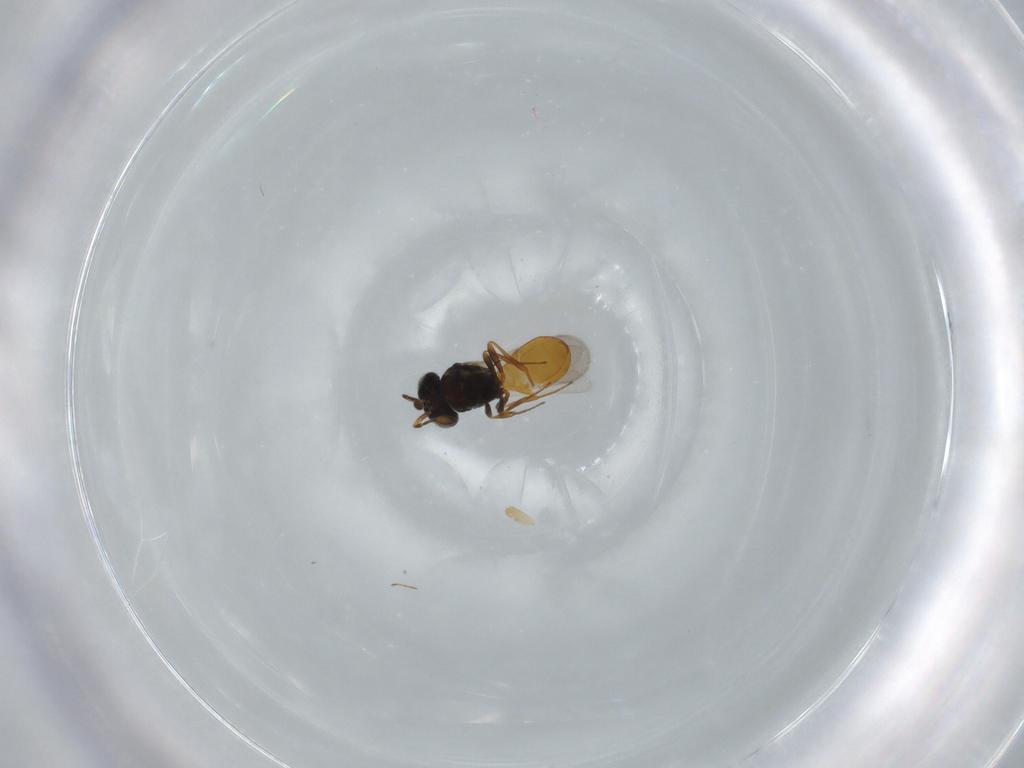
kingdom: Animalia
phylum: Arthropoda
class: Insecta
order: Hymenoptera
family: Scelionidae
